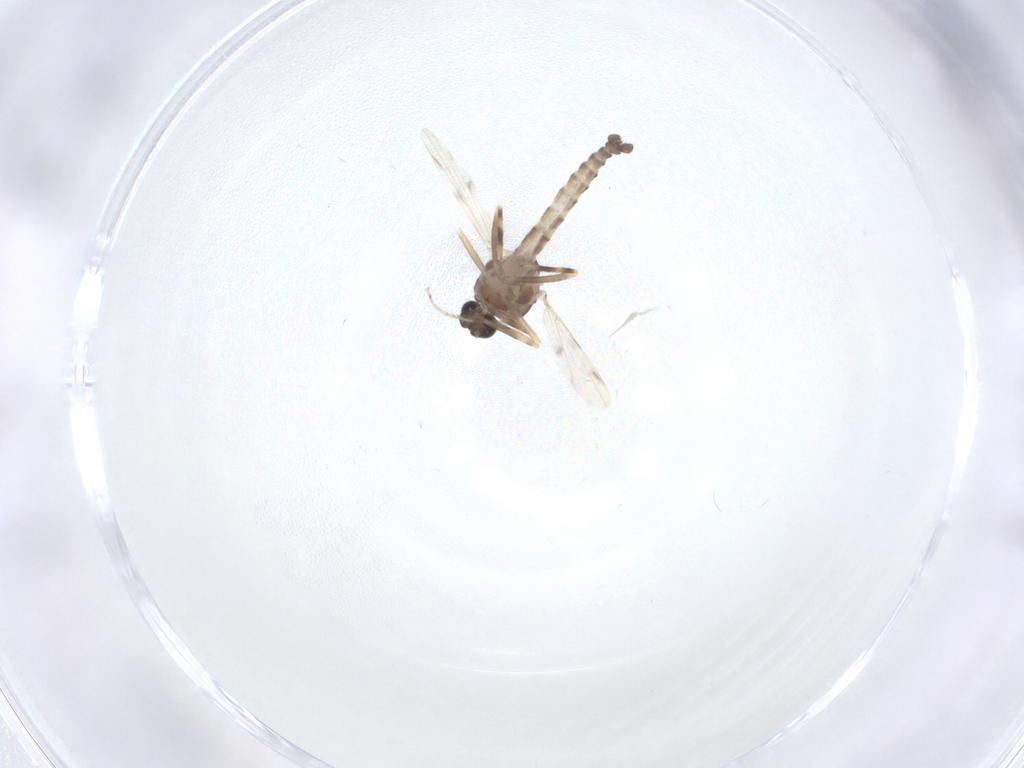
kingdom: Animalia
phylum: Arthropoda
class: Insecta
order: Diptera
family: Ceratopogonidae
